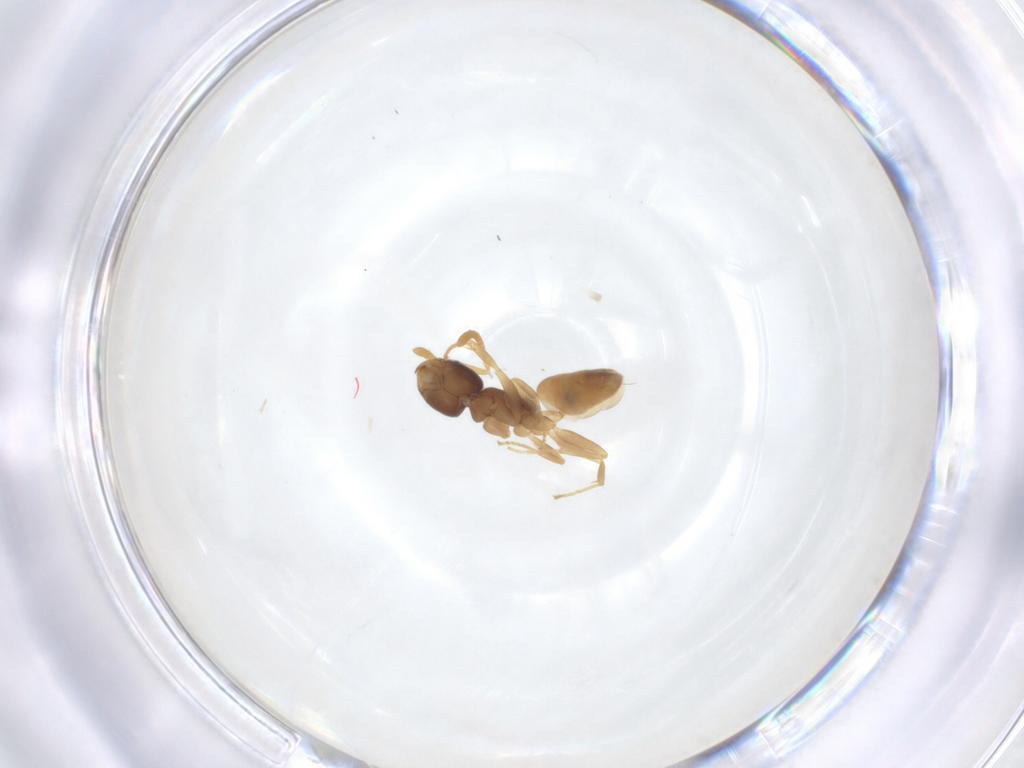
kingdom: Animalia
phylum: Arthropoda
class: Insecta
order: Hymenoptera
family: Formicidae
